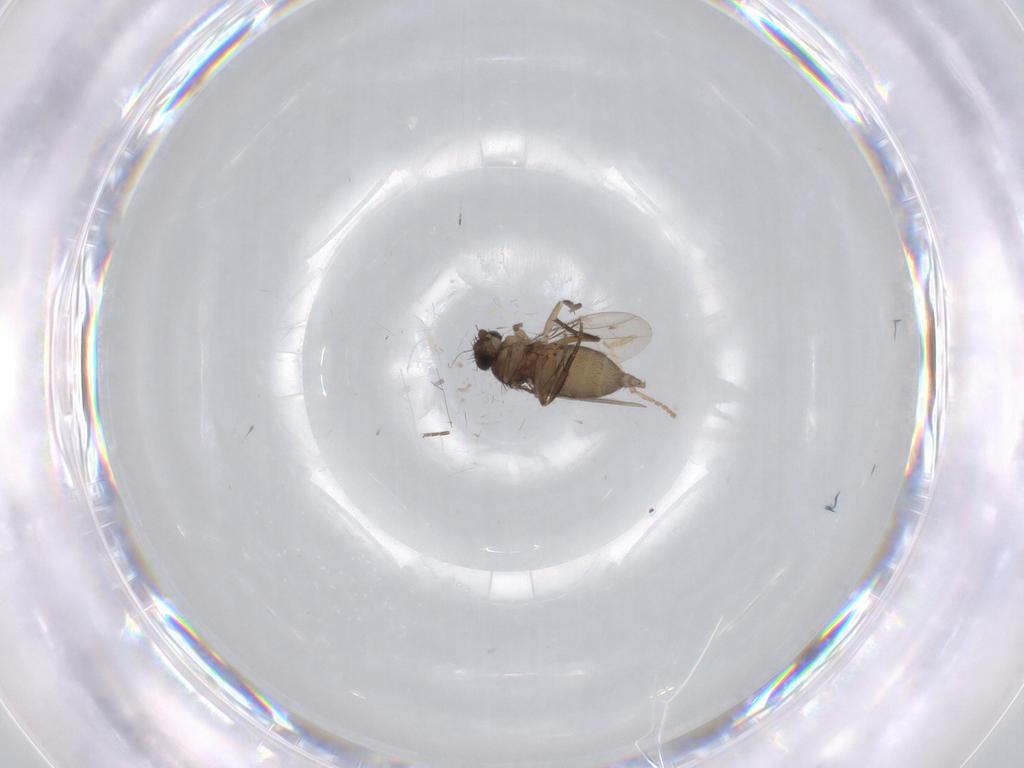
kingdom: Animalia
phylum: Arthropoda
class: Insecta
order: Diptera
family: Phoridae
